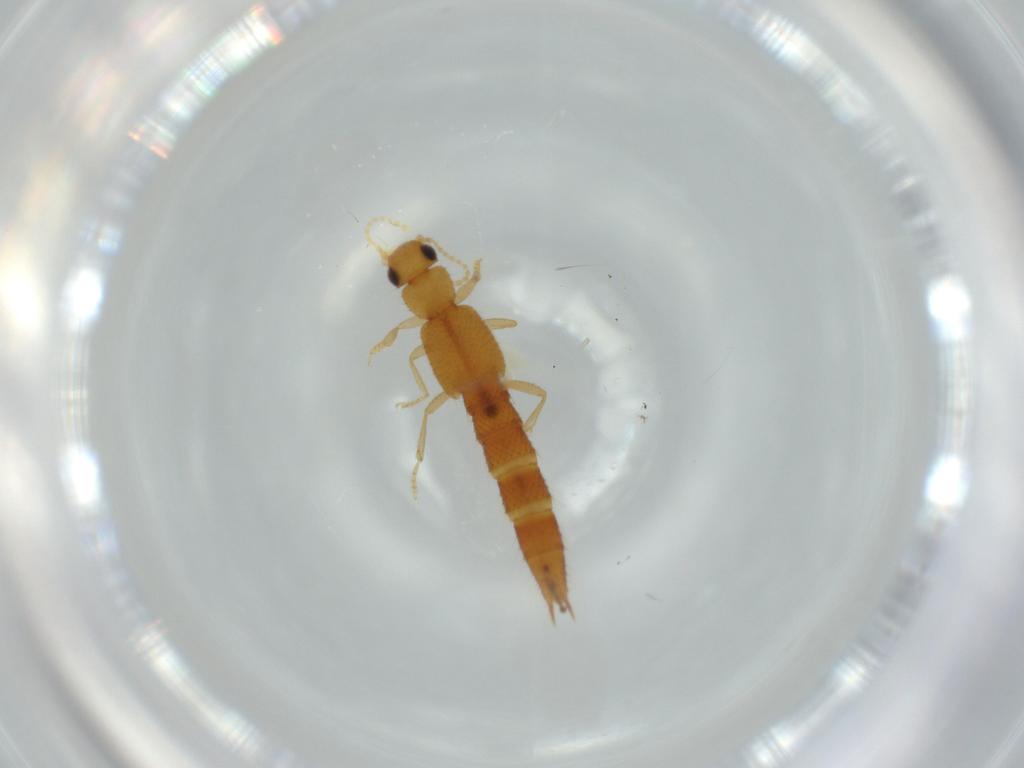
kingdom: Animalia
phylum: Arthropoda
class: Insecta
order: Coleoptera
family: Staphylinidae
